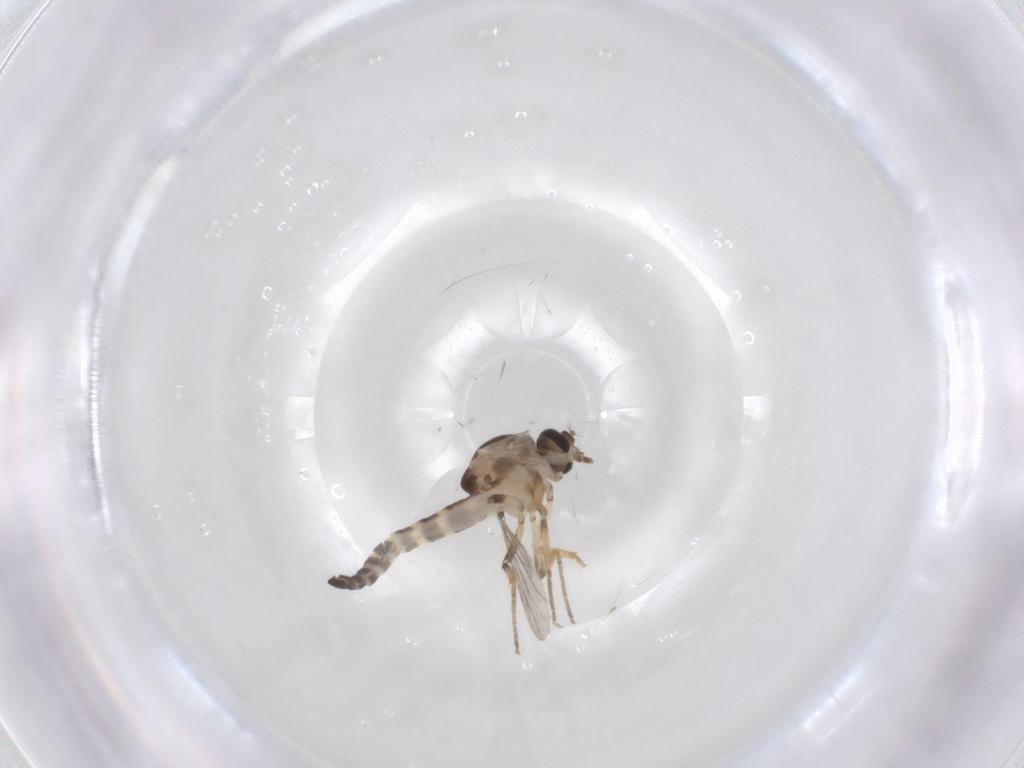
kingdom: Animalia
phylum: Arthropoda
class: Insecta
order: Diptera
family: Ceratopogonidae
